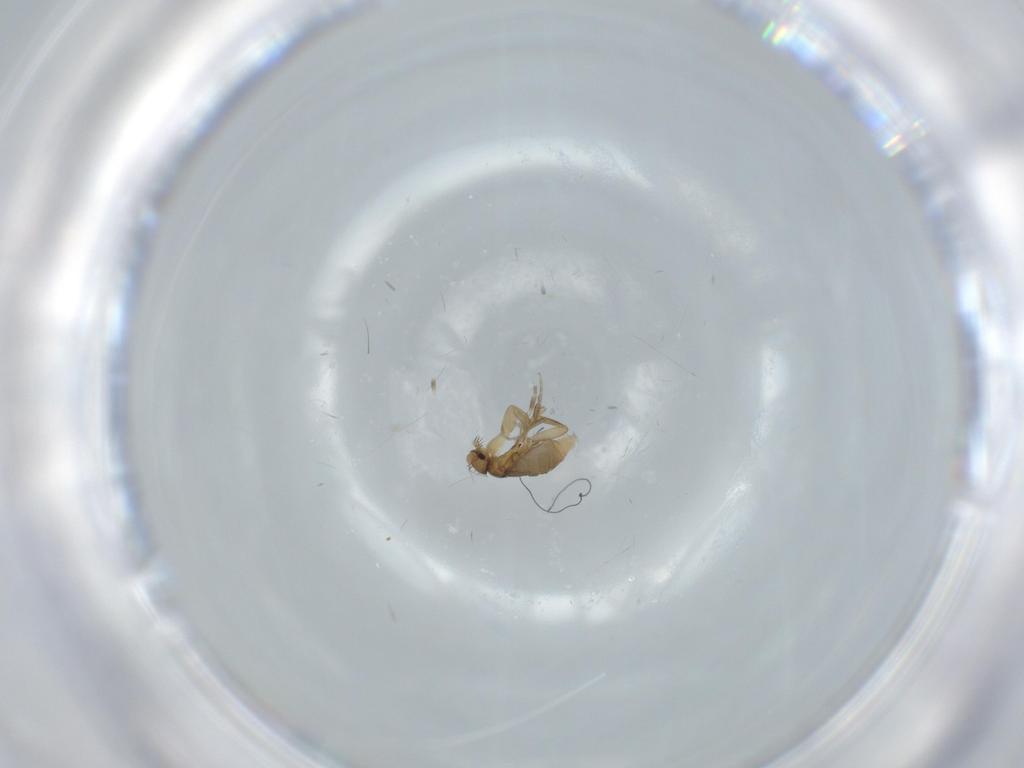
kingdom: Animalia
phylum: Arthropoda
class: Insecta
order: Diptera
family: Phoridae
